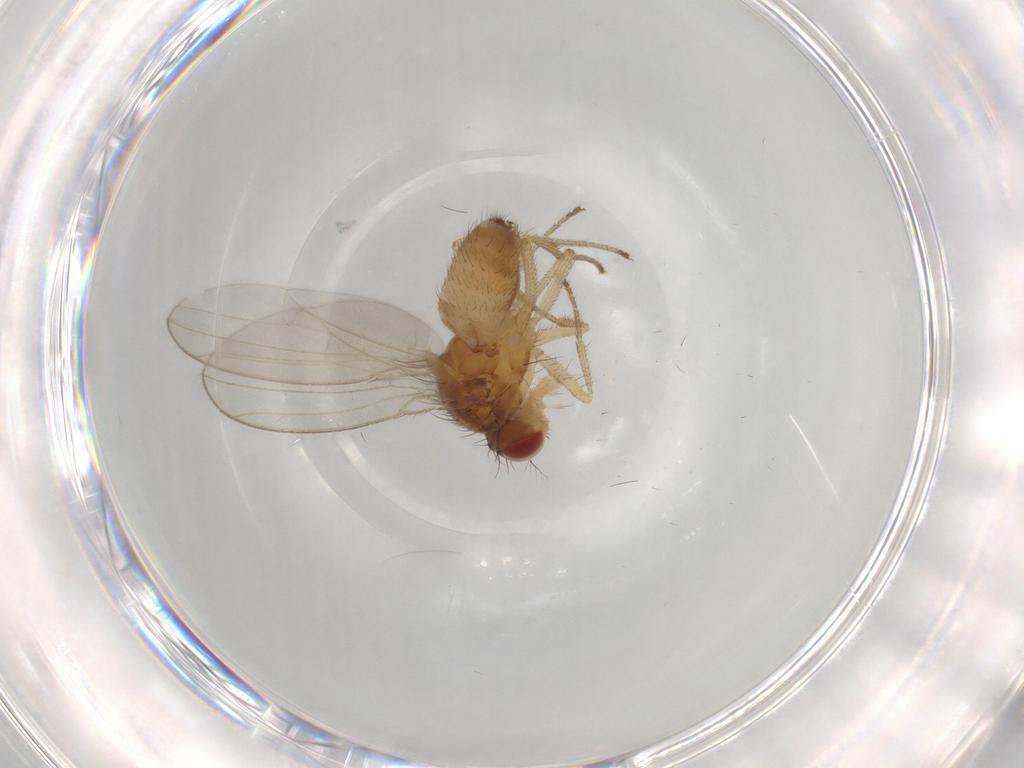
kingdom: Animalia
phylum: Arthropoda
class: Insecta
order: Diptera
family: Drosophilidae
